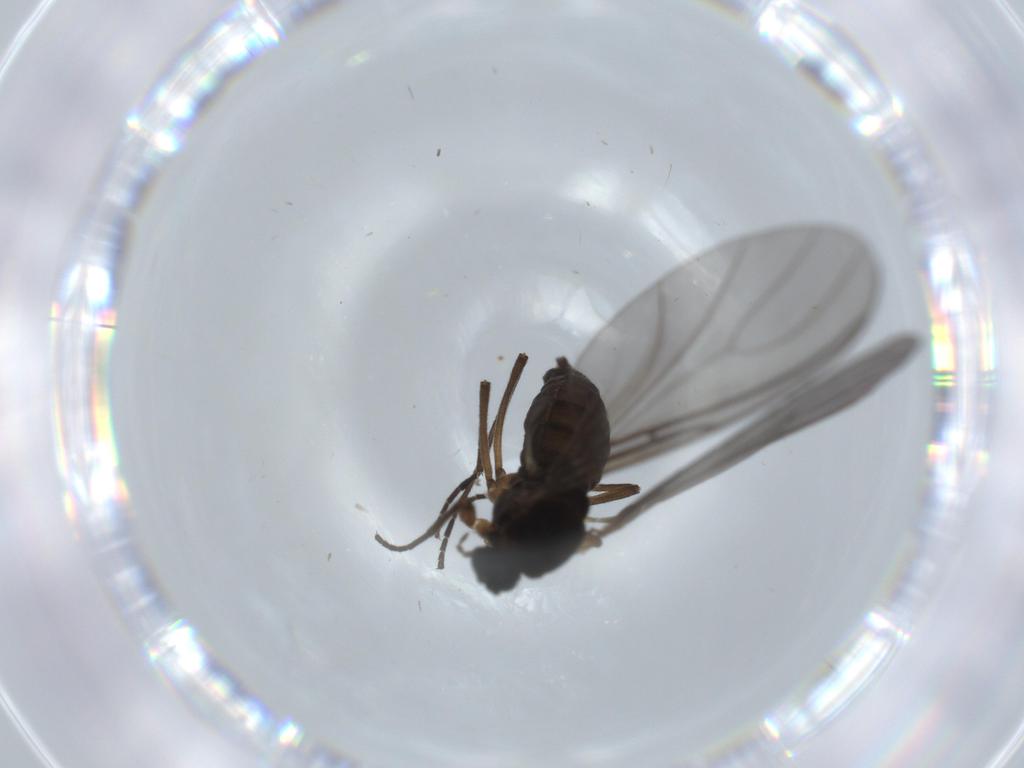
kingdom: Animalia
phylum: Arthropoda
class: Insecta
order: Diptera
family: Sciaridae
